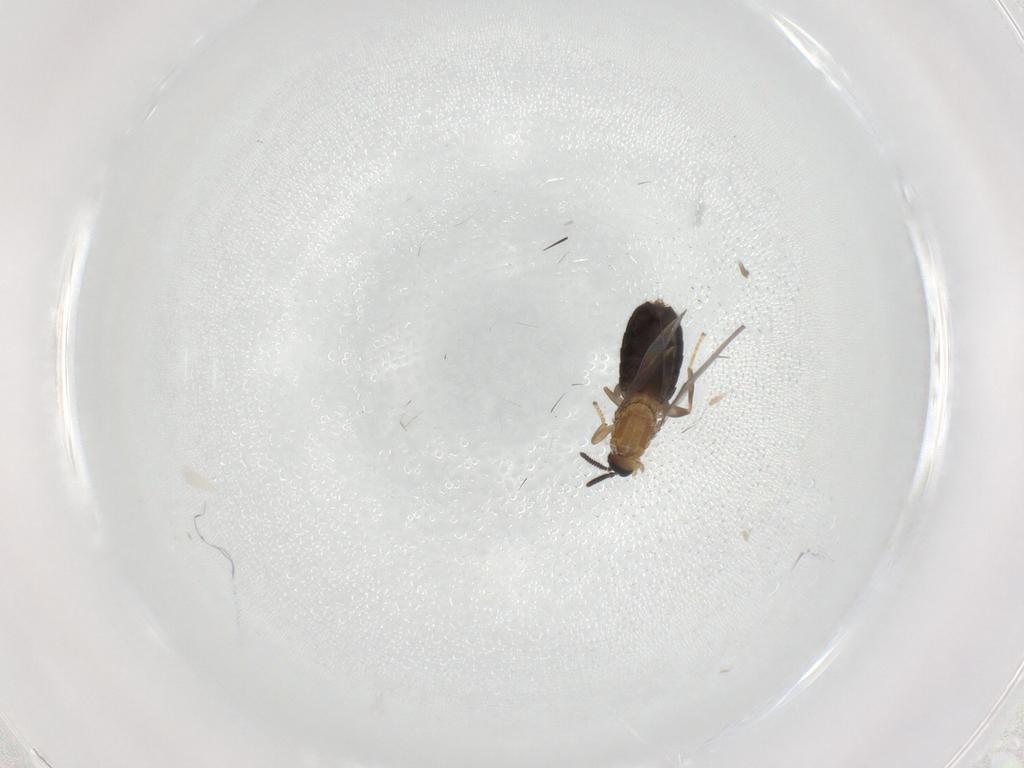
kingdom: Animalia
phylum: Arthropoda
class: Insecta
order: Diptera
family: Scatopsidae
